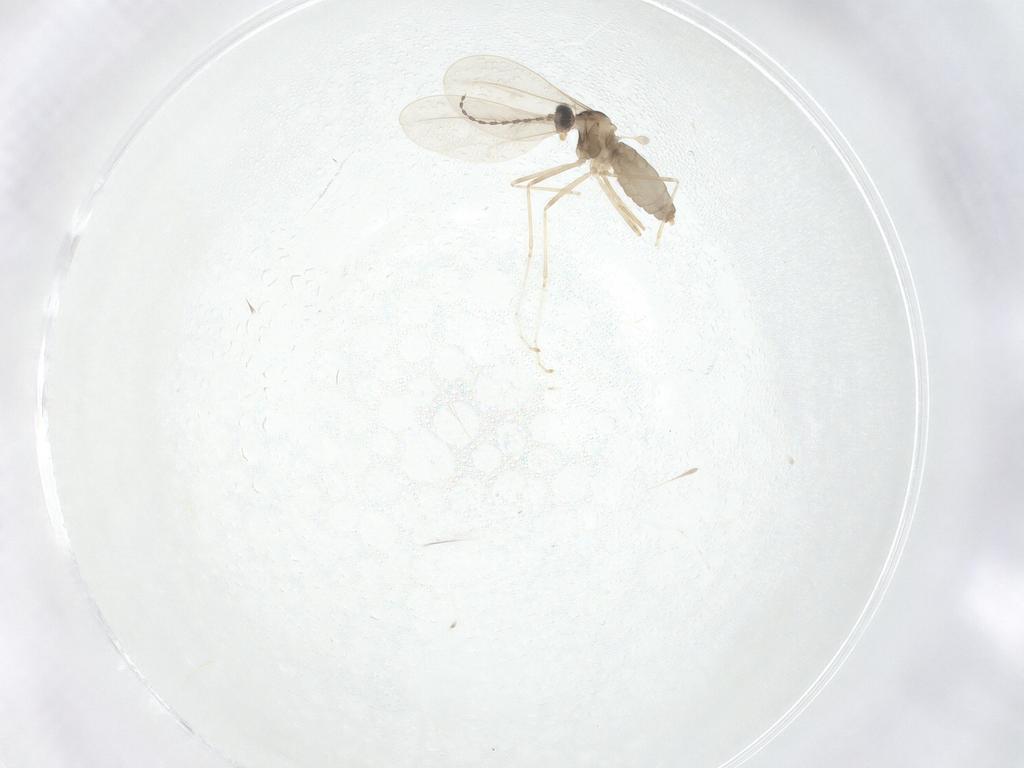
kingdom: Animalia
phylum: Arthropoda
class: Insecta
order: Diptera
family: Cecidomyiidae
